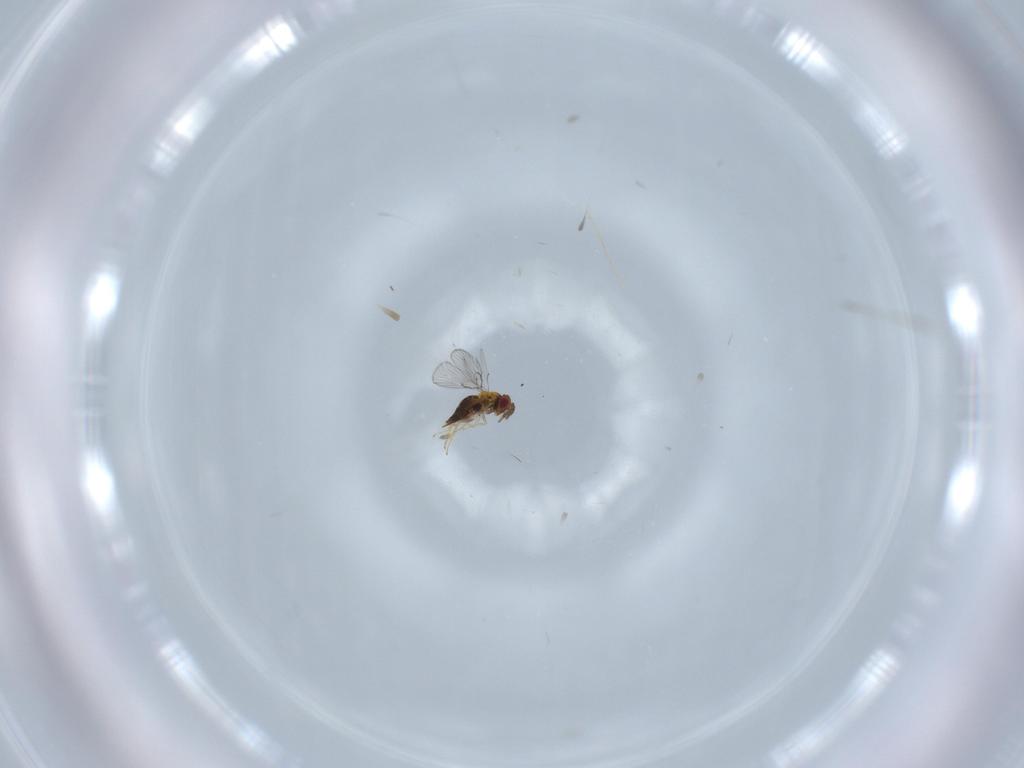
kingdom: Animalia
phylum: Arthropoda
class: Insecta
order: Hymenoptera
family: Trichogrammatidae
